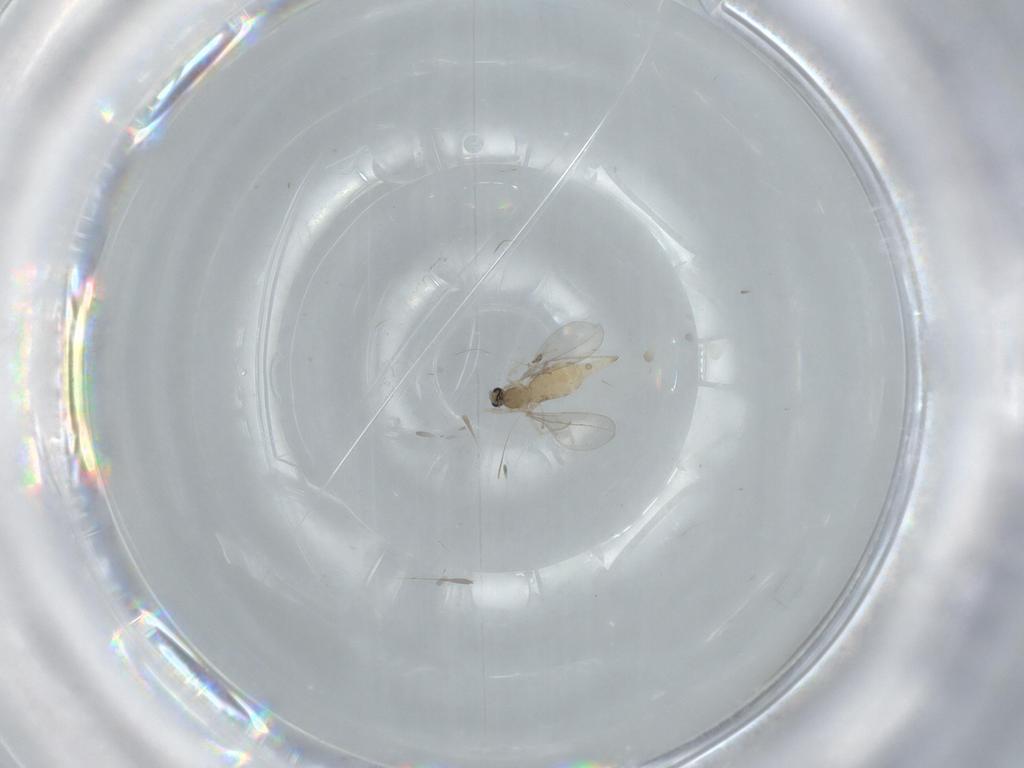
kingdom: Animalia
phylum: Arthropoda
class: Insecta
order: Diptera
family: Cecidomyiidae
